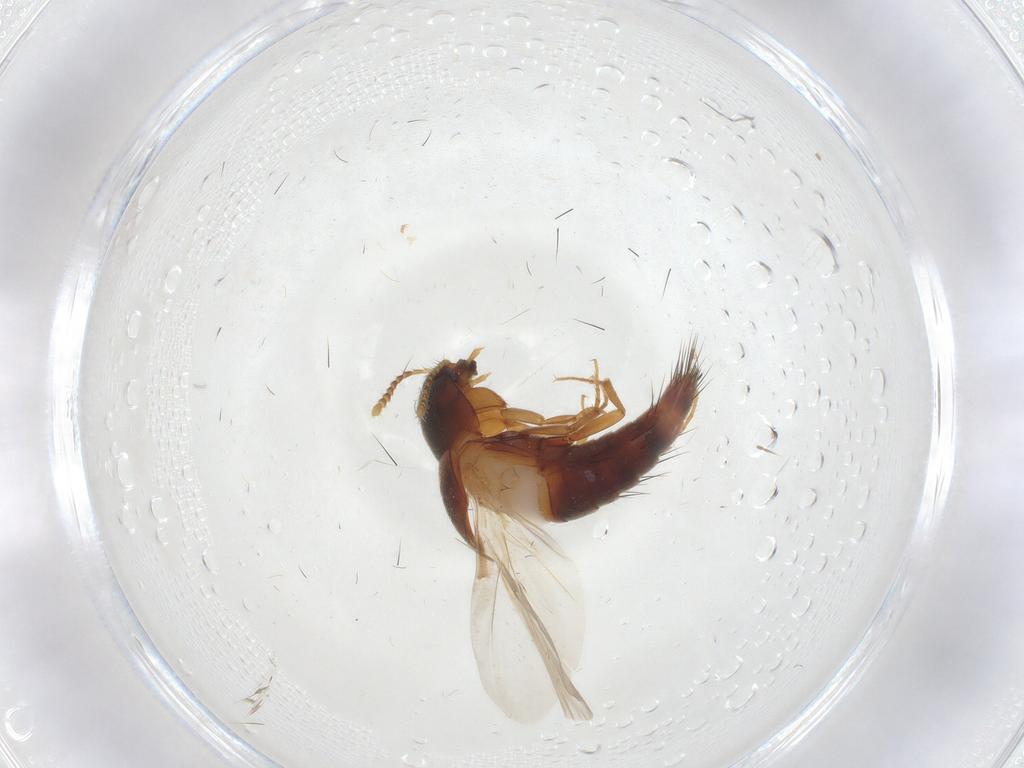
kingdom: Animalia
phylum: Arthropoda
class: Insecta
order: Coleoptera
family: Staphylinidae
